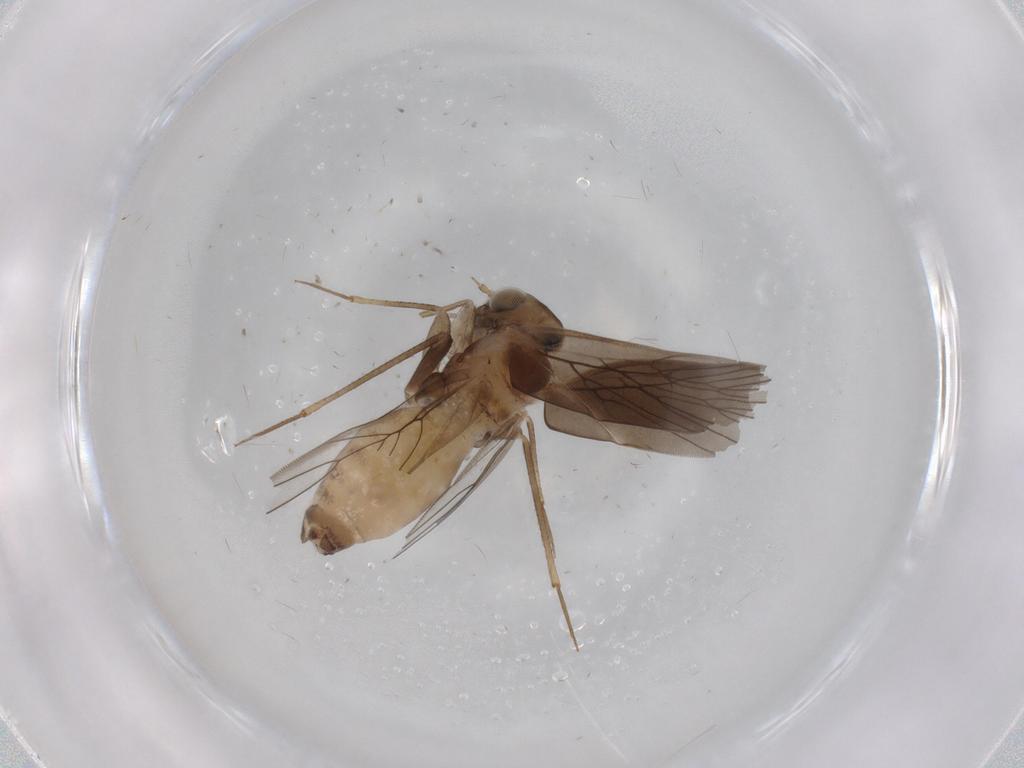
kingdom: Animalia
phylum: Arthropoda
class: Insecta
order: Psocodea
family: Lepidopsocidae
